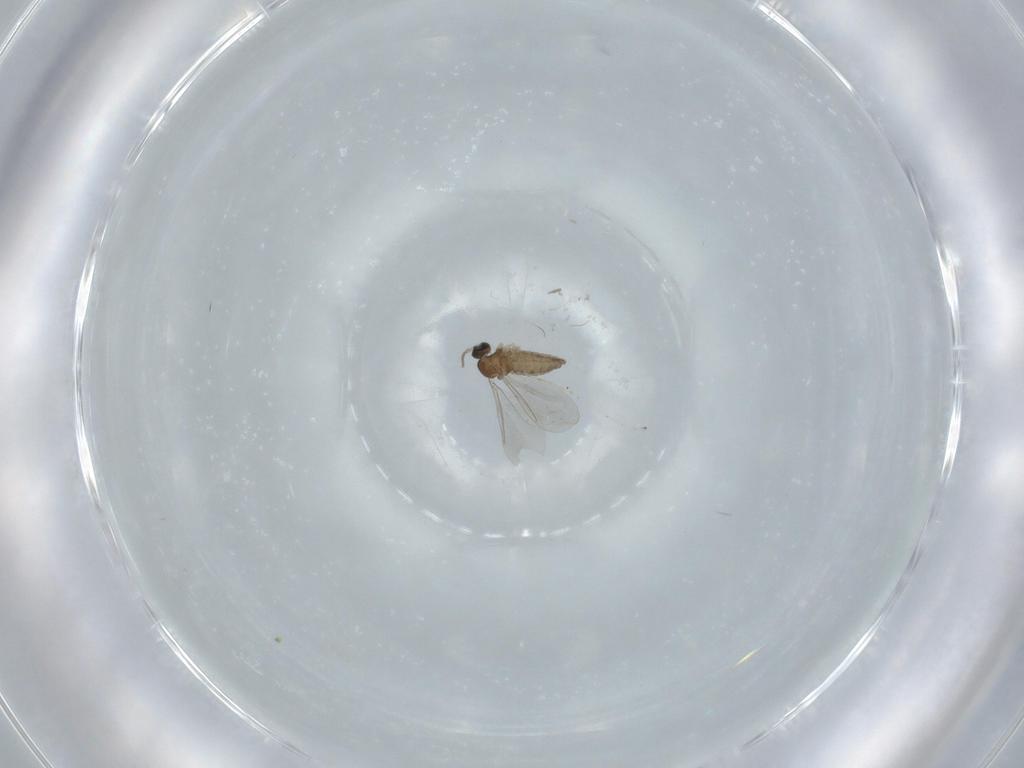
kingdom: Animalia
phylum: Arthropoda
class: Insecta
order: Diptera
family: Cecidomyiidae
